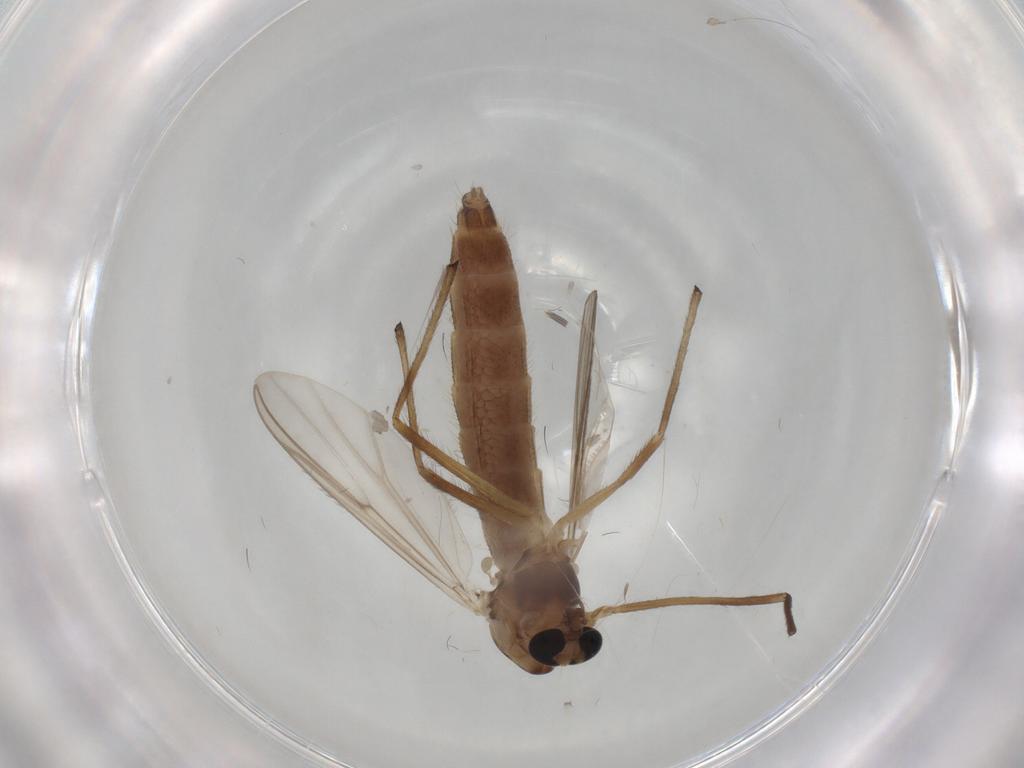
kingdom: Animalia
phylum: Arthropoda
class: Insecta
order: Diptera
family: Chironomidae
